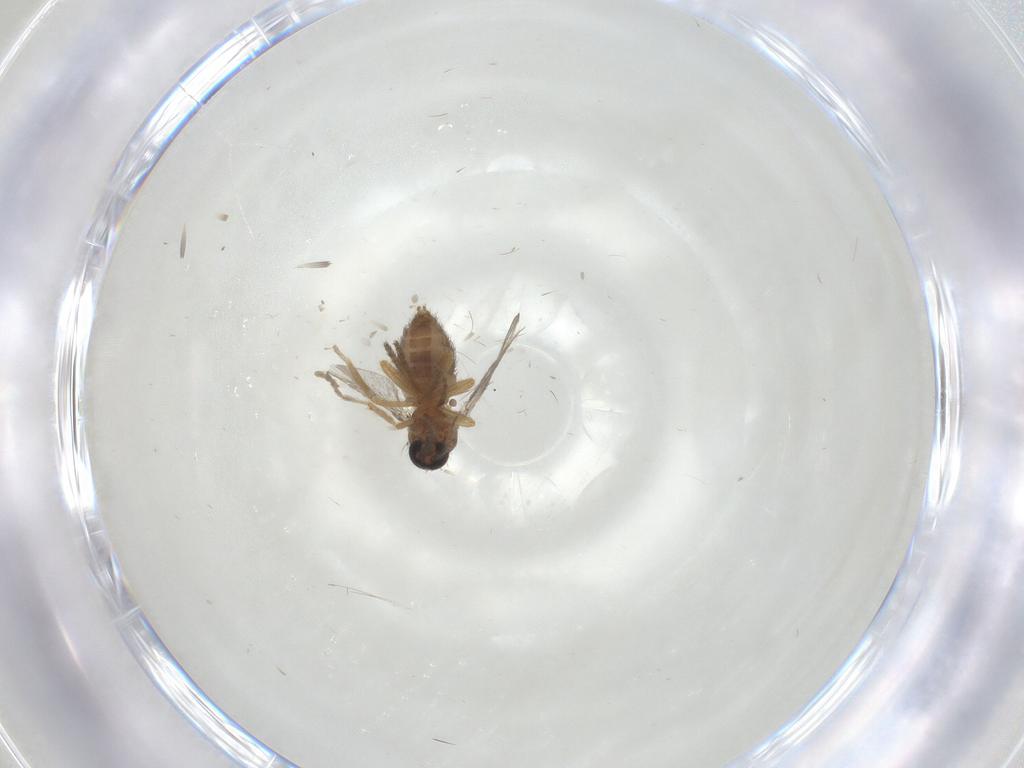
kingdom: Animalia
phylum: Arthropoda
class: Insecta
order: Diptera
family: Ceratopogonidae
